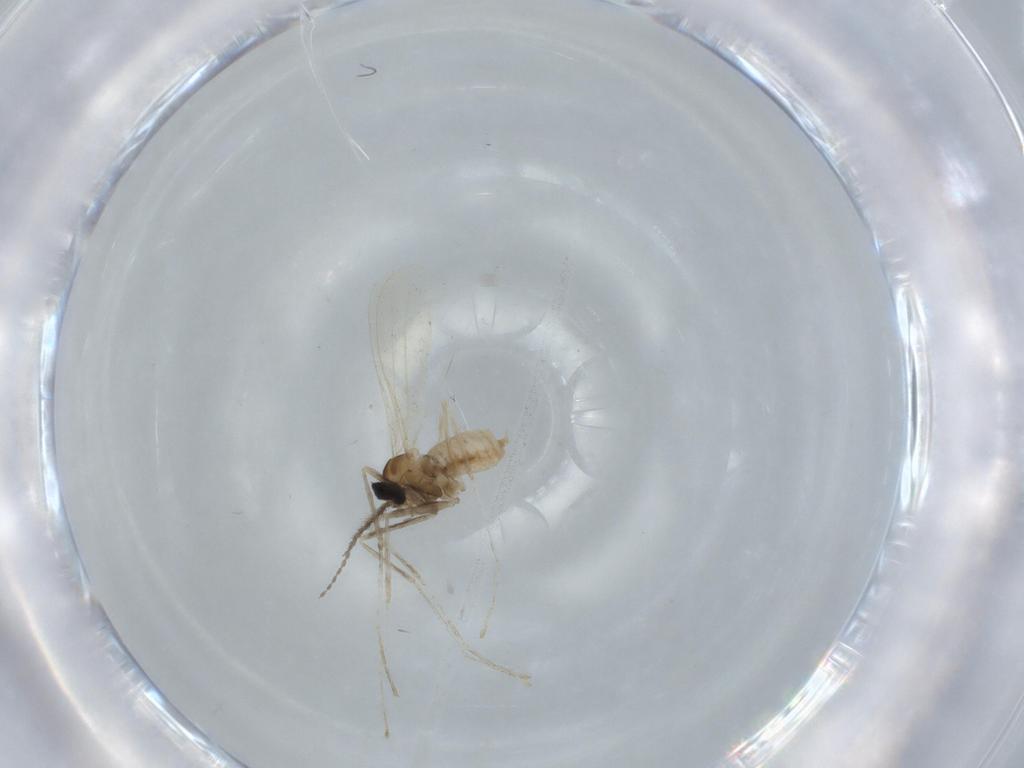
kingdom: Animalia
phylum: Arthropoda
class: Insecta
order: Diptera
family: Cecidomyiidae
